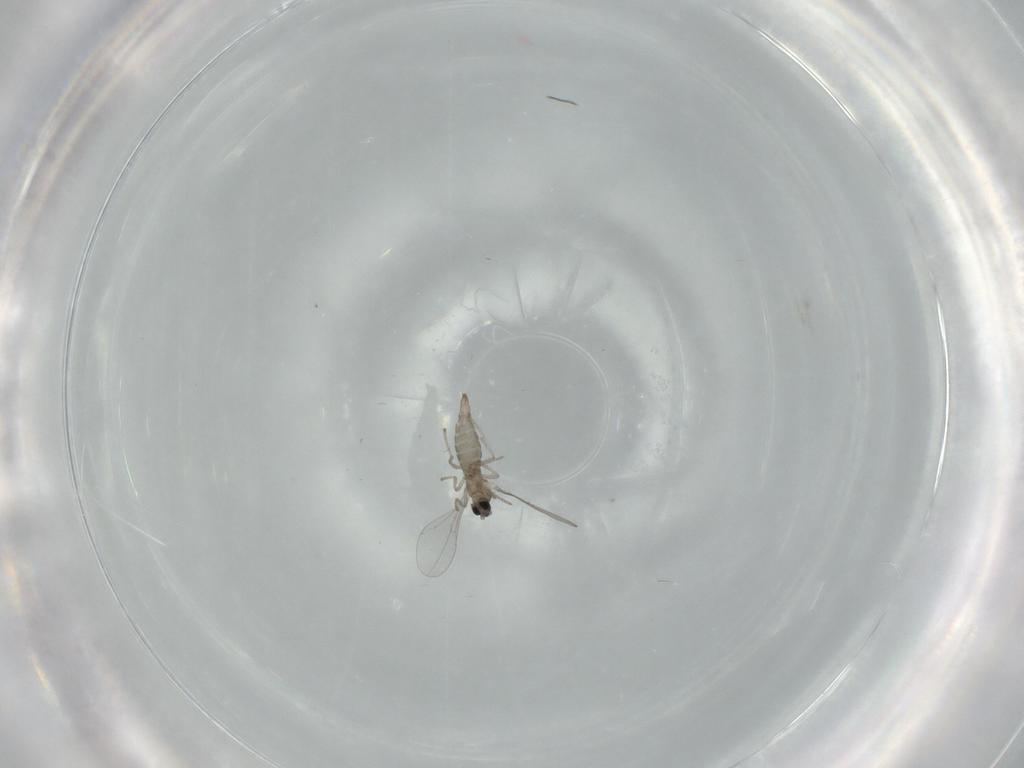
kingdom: Animalia
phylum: Arthropoda
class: Insecta
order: Diptera
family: Cecidomyiidae
